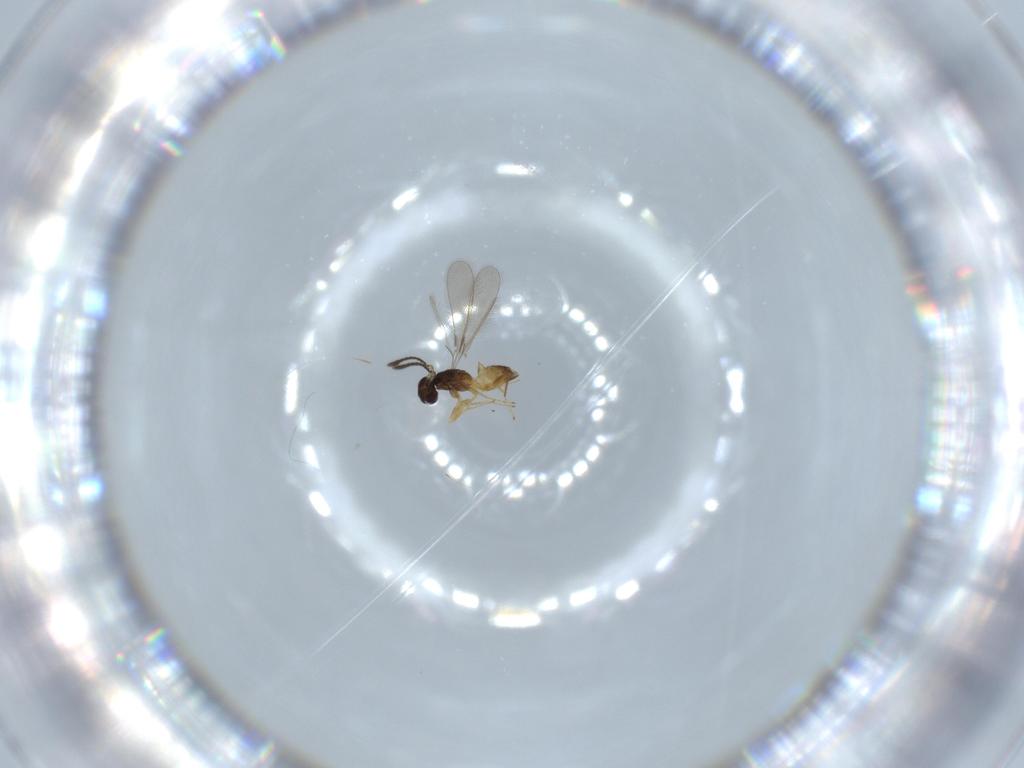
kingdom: Animalia
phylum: Arthropoda
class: Insecta
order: Hymenoptera
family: Mymaridae
